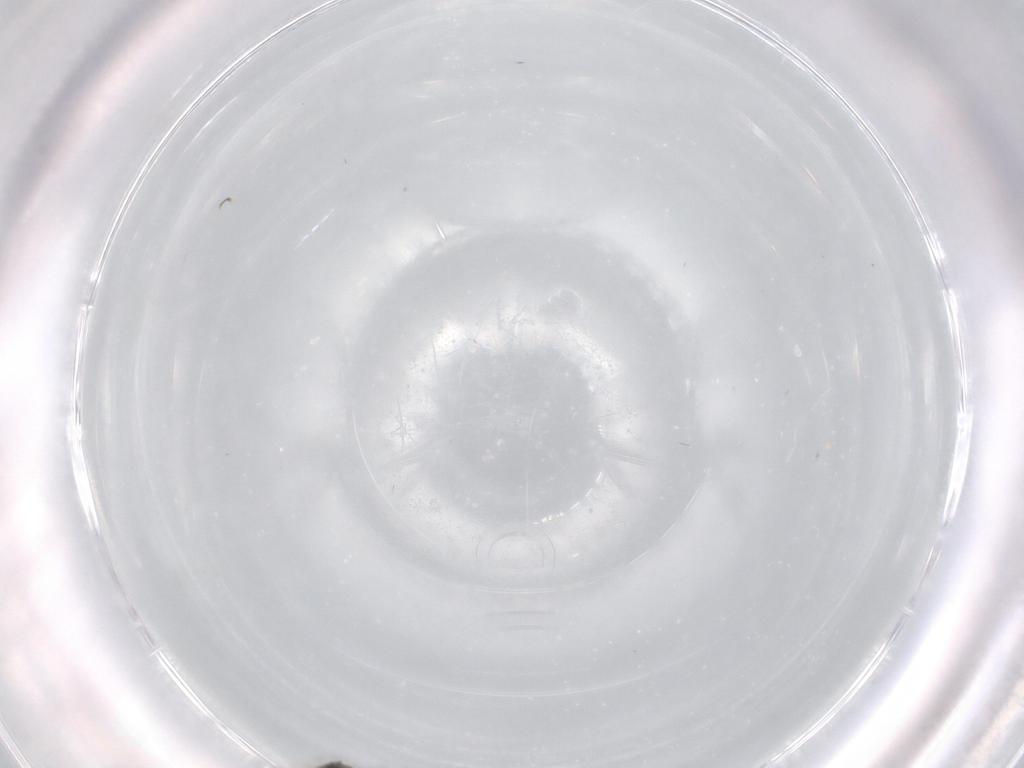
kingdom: Animalia
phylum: Arthropoda
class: Insecta
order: Diptera
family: Chironomidae
